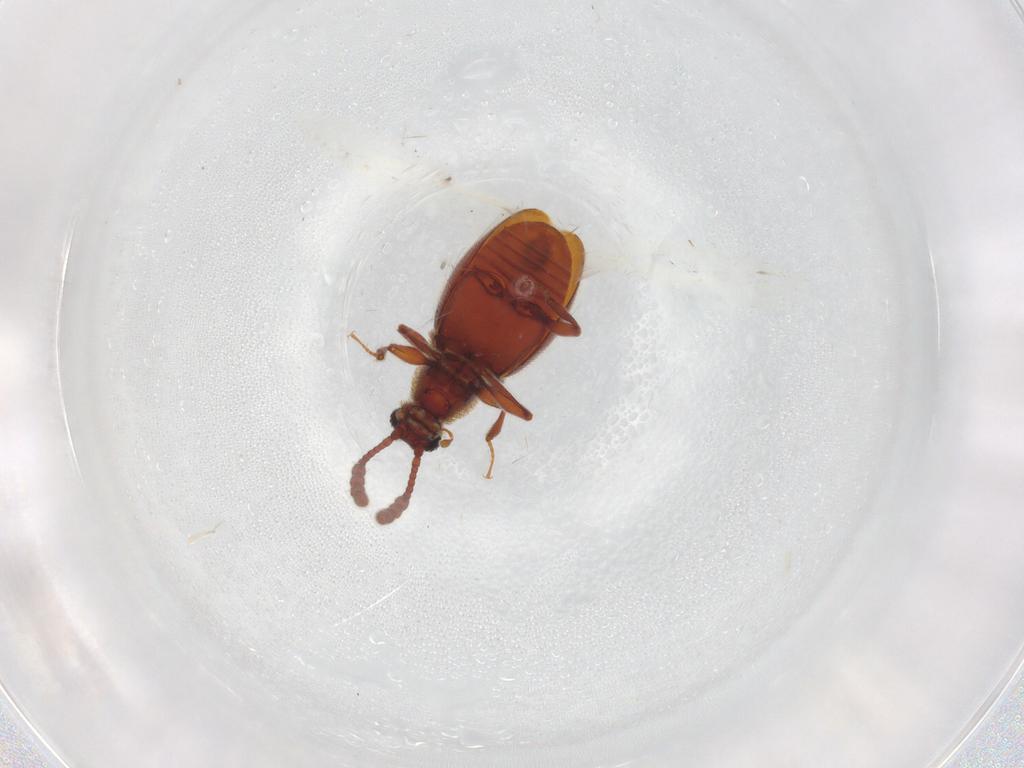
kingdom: Animalia
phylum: Arthropoda
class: Insecta
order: Coleoptera
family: Staphylinidae
